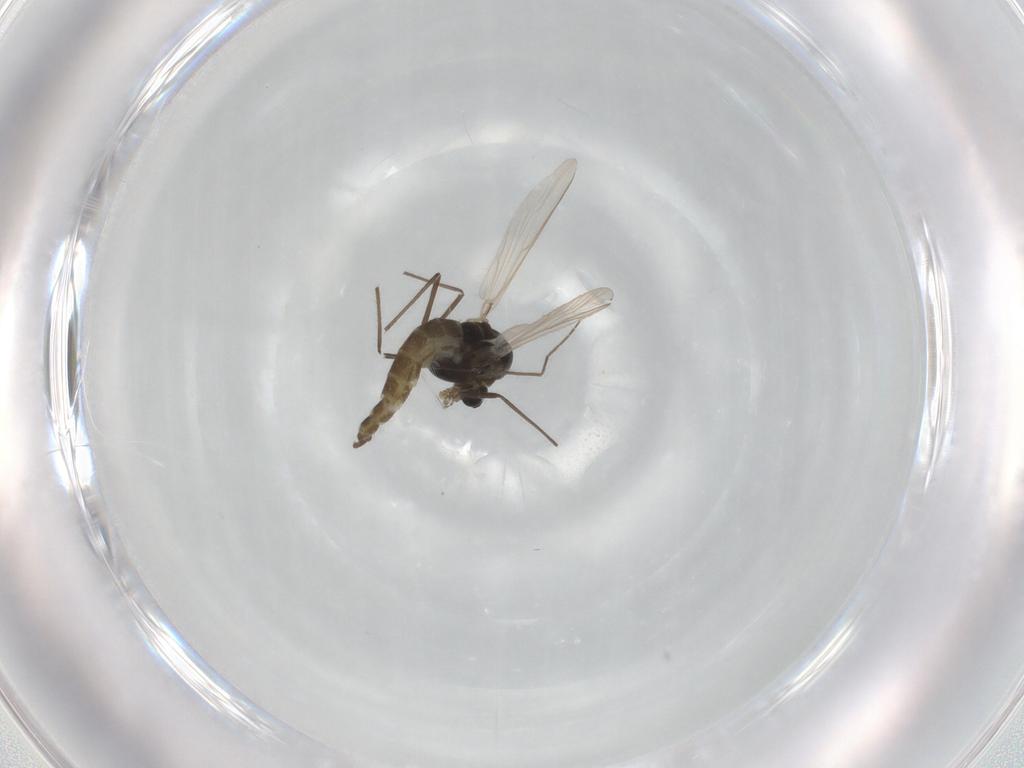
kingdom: Animalia
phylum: Arthropoda
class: Insecta
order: Diptera
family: Chironomidae
